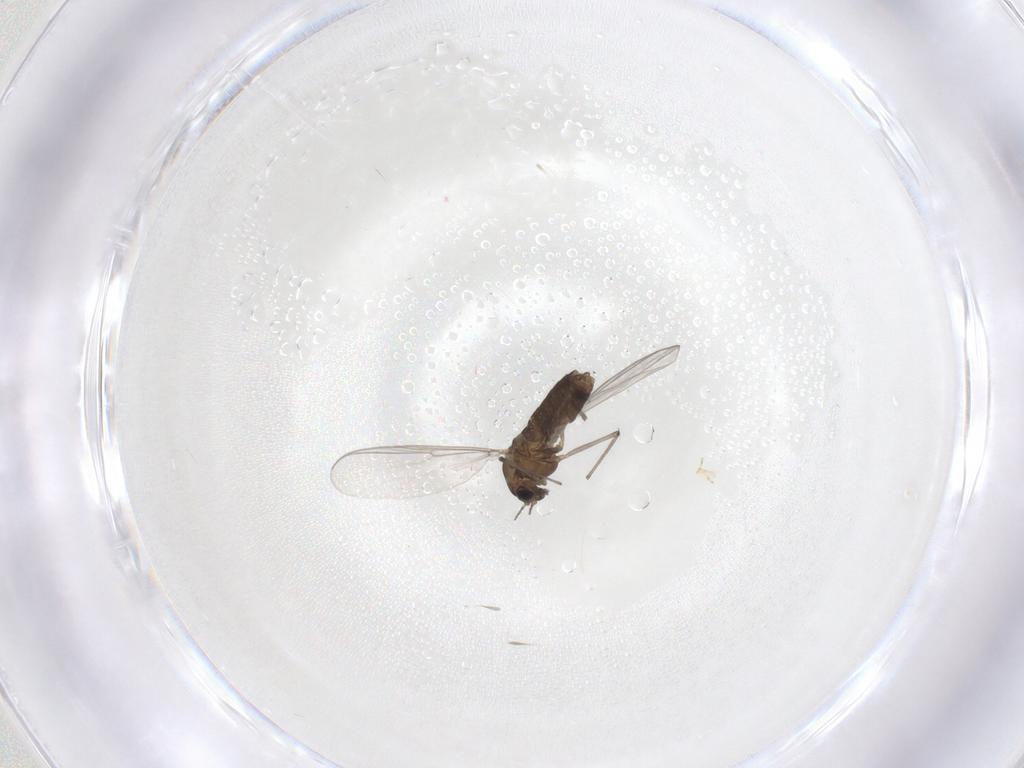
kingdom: Animalia
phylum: Arthropoda
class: Insecta
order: Diptera
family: Chironomidae
